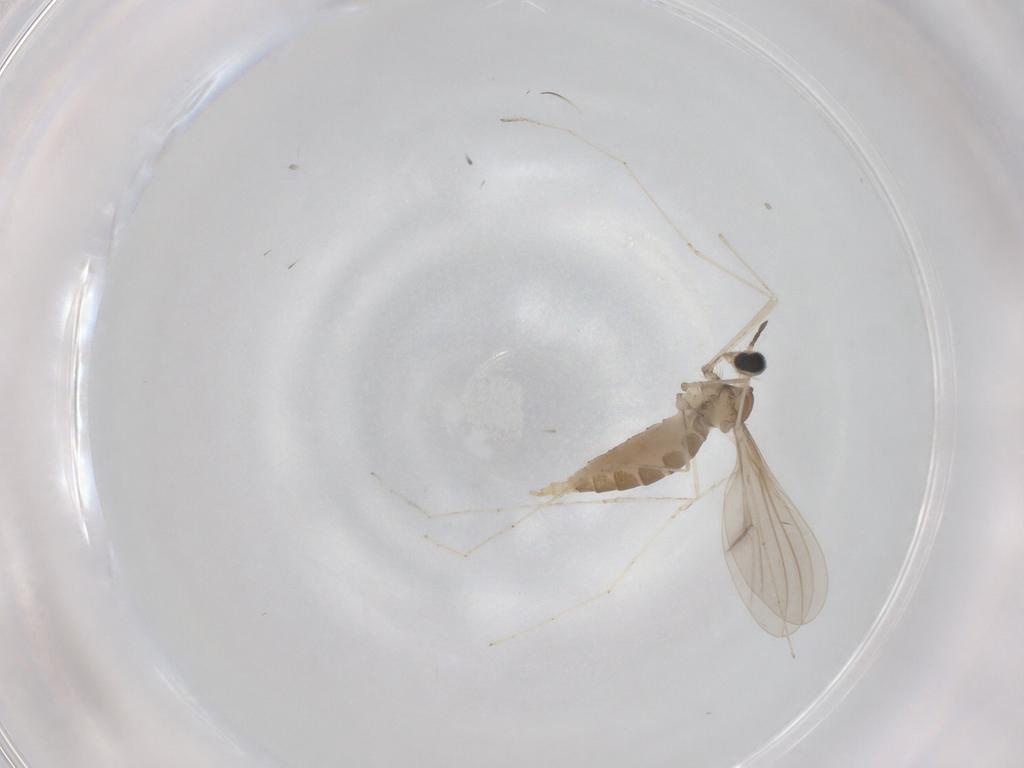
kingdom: Animalia
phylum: Arthropoda
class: Insecta
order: Diptera
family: Cecidomyiidae
